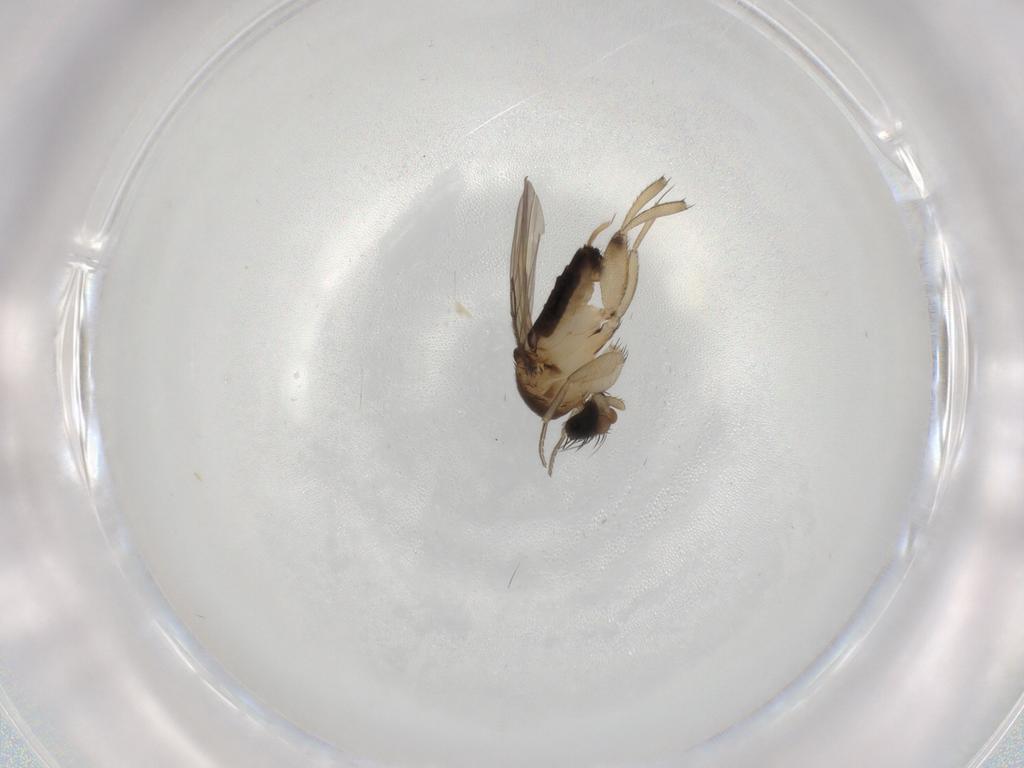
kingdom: Animalia
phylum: Arthropoda
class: Insecta
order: Diptera
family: Phoridae
